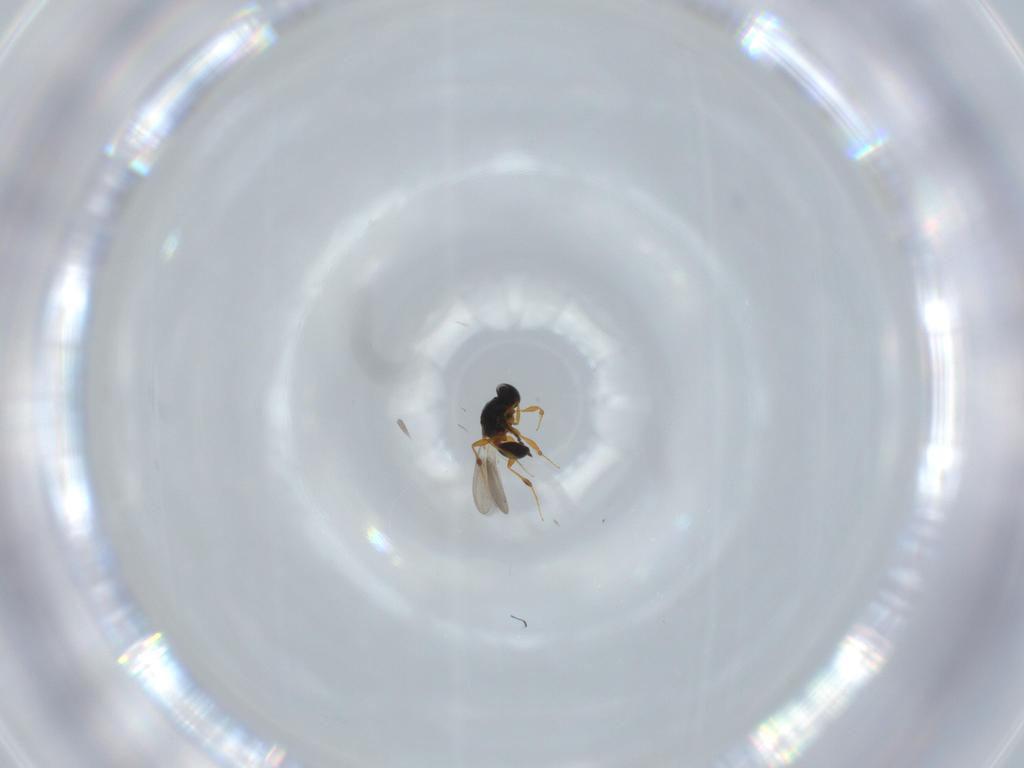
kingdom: Animalia
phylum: Arthropoda
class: Insecta
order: Hymenoptera
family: Platygastridae
